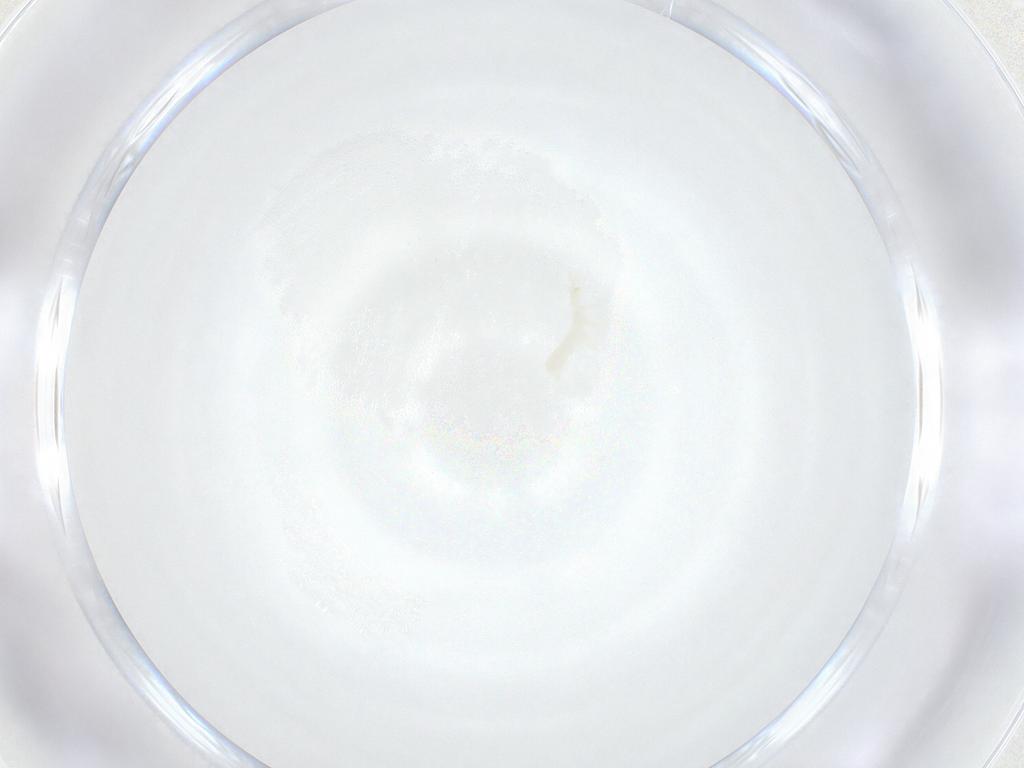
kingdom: Animalia
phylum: Arthropoda
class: Insecta
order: Diptera
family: Sciaridae
